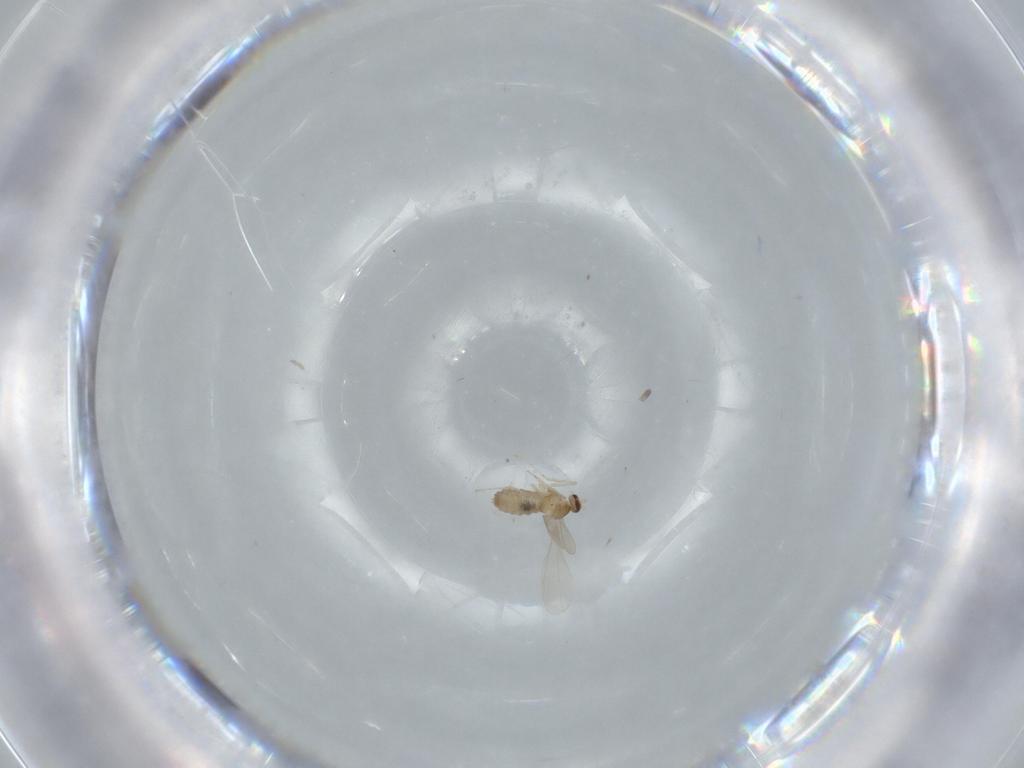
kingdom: Animalia
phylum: Arthropoda
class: Insecta
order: Diptera
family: Cecidomyiidae
